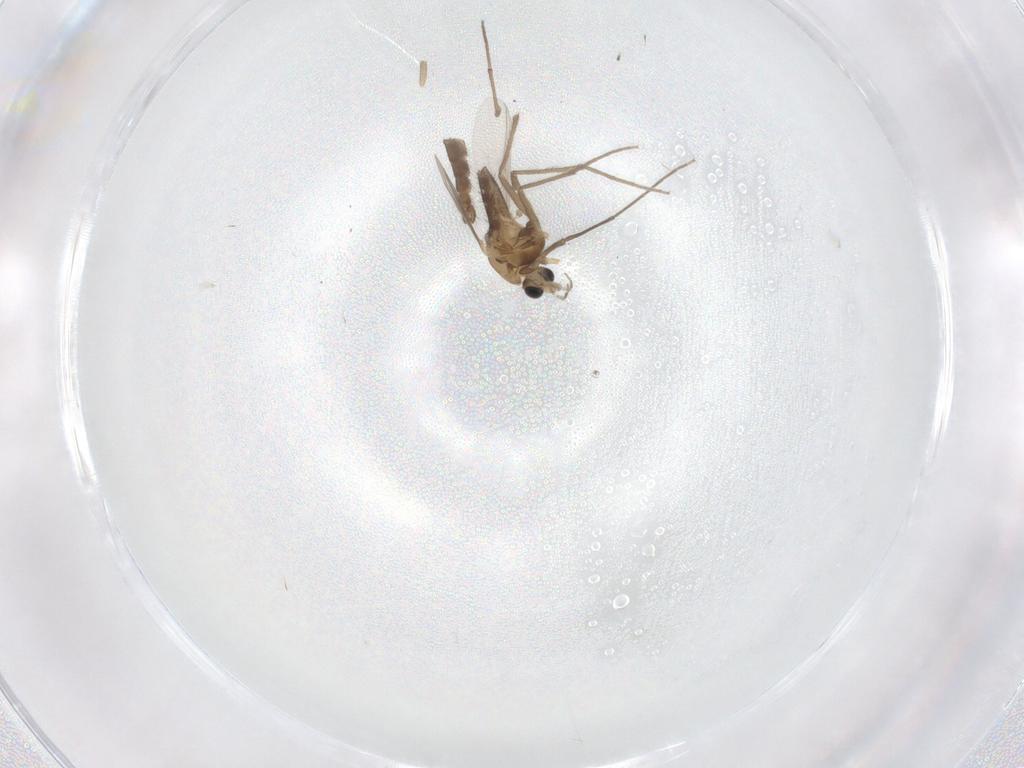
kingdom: Animalia
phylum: Arthropoda
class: Insecta
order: Diptera
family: Chironomidae
